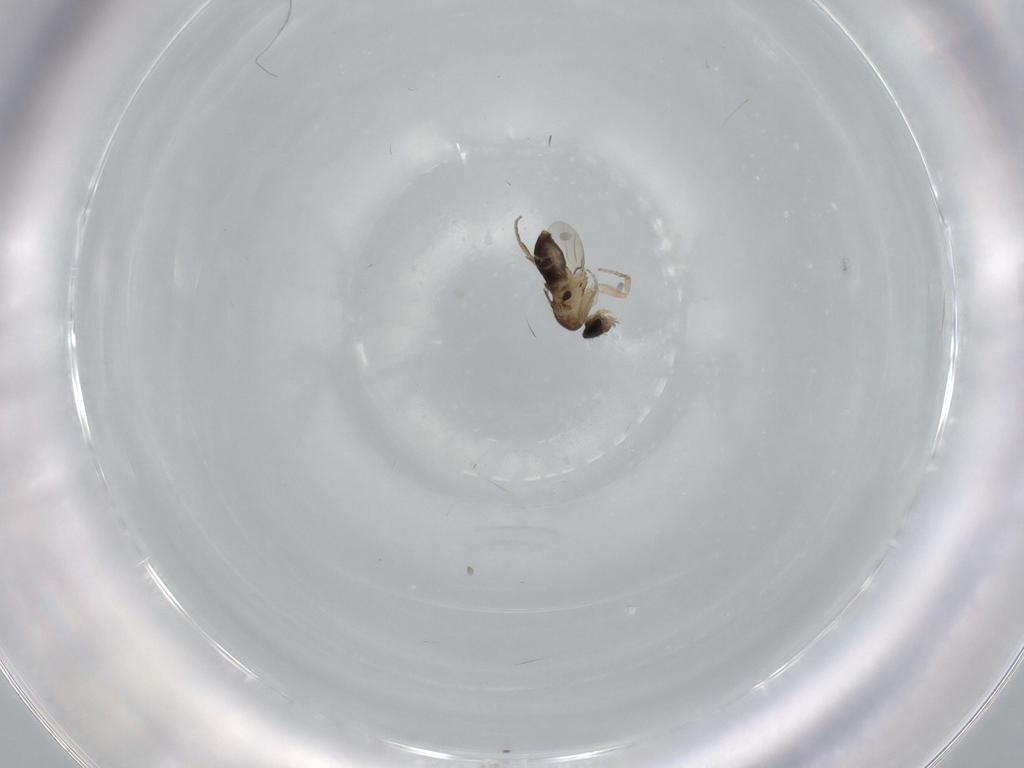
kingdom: Animalia
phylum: Arthropoda
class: Insecta
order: Diptera
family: Phoridae
